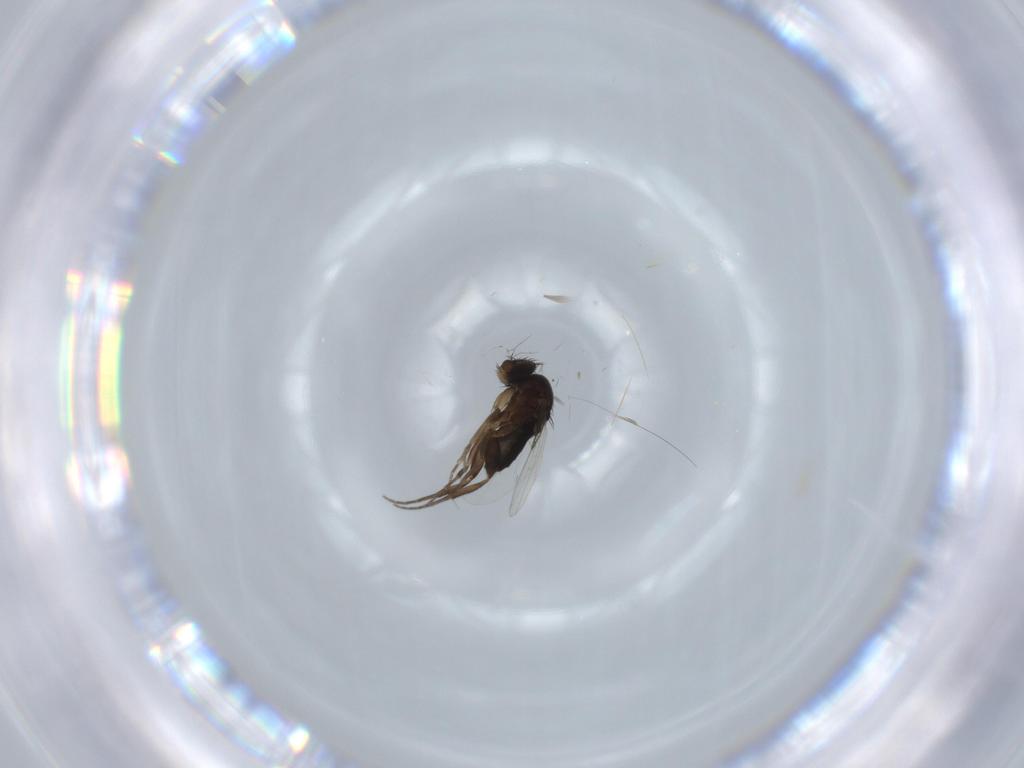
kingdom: Animalia
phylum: Arthropoda
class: Insecta
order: Diptera
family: Phoridae
